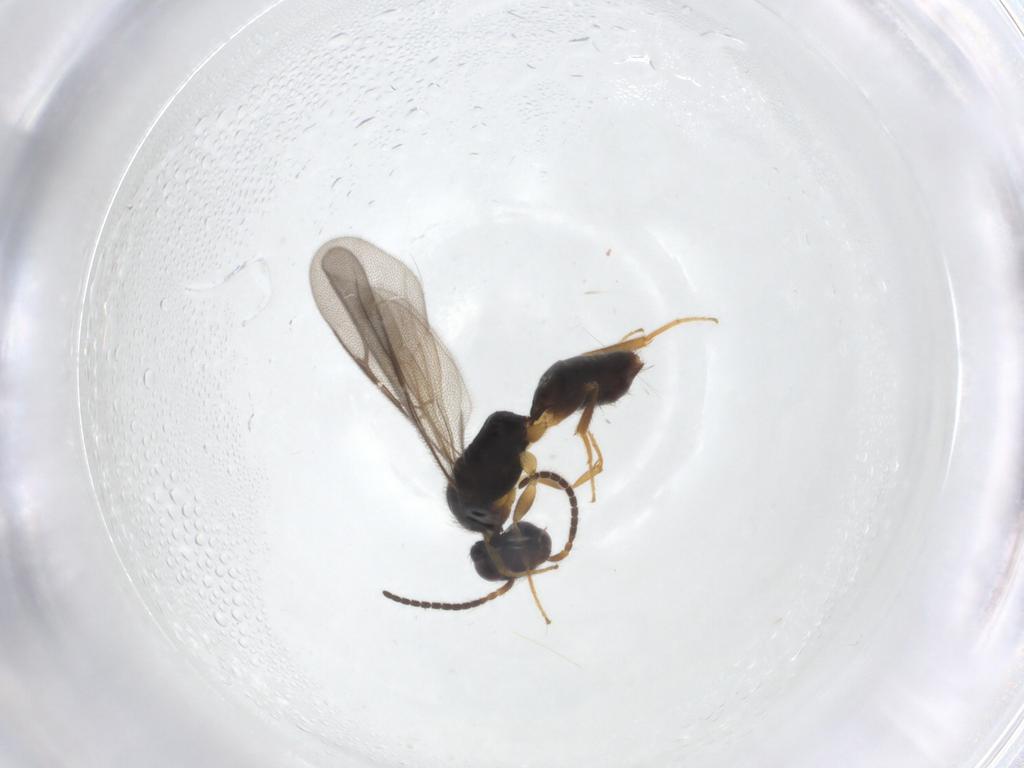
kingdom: Animalia
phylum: Arthropoda
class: Insecta
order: Hymenoptera
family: Bethylidae
